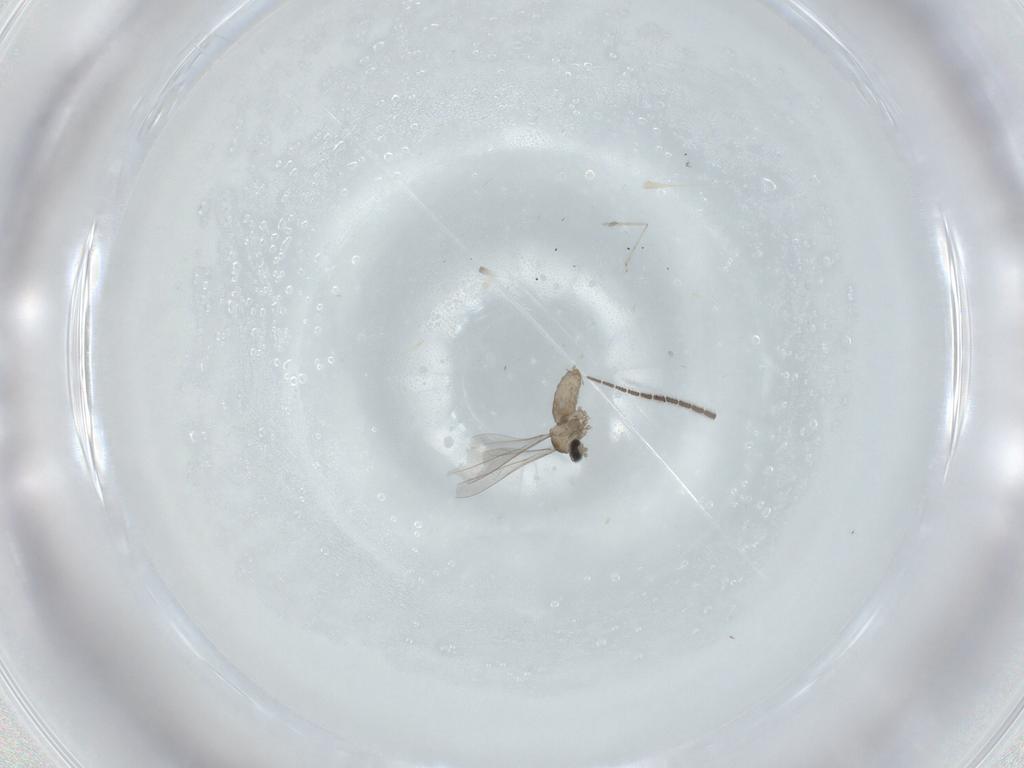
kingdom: Animalia
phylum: Arthropoda
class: Insecta
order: Diptera
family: Sciaridae
